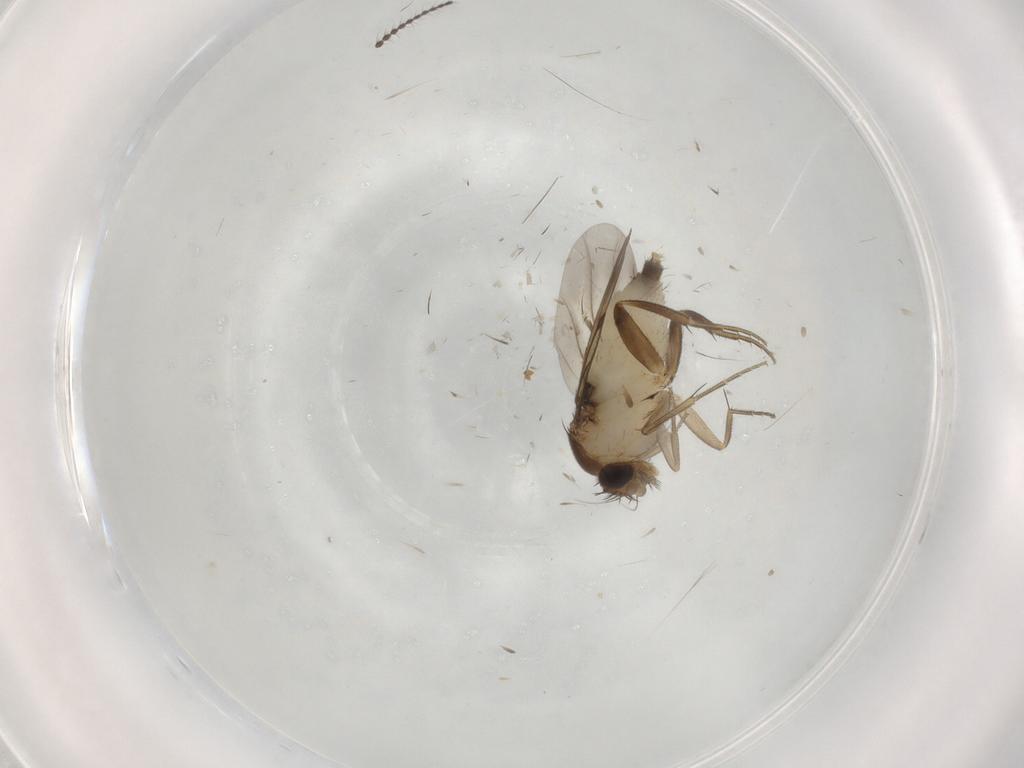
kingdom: Animalia
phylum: Arthropoda
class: Insecta
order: Diptera
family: Phoridae
